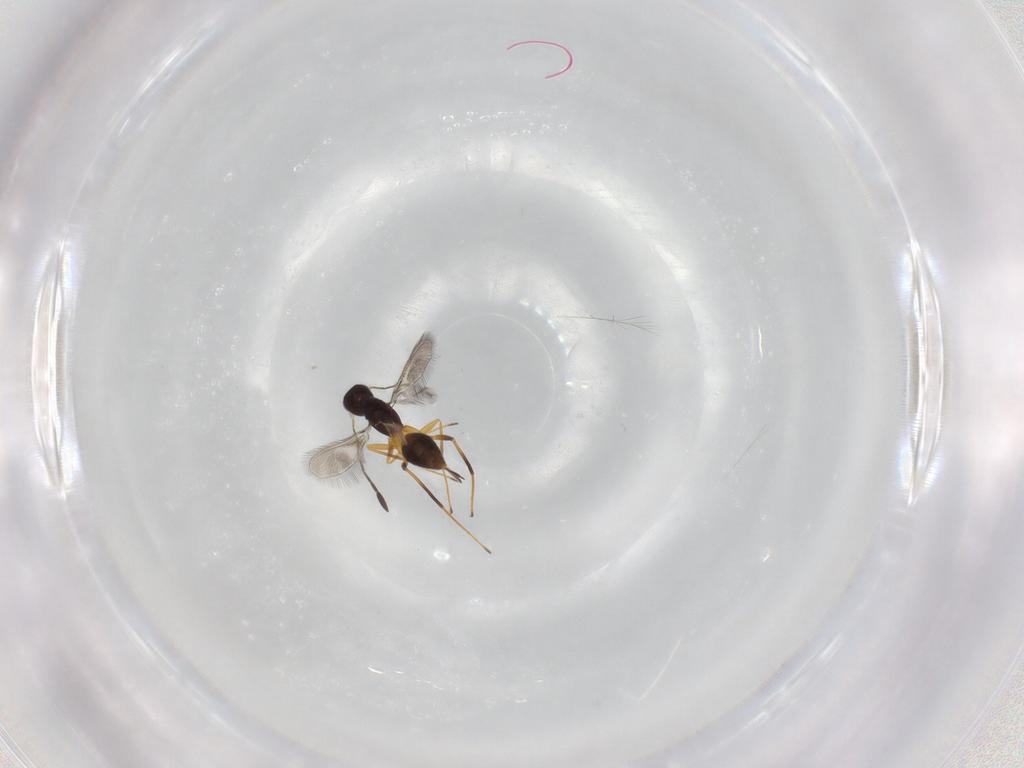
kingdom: Animalia
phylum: Arthropoda
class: Insecta
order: Hymenoptera
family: Bethylidae
